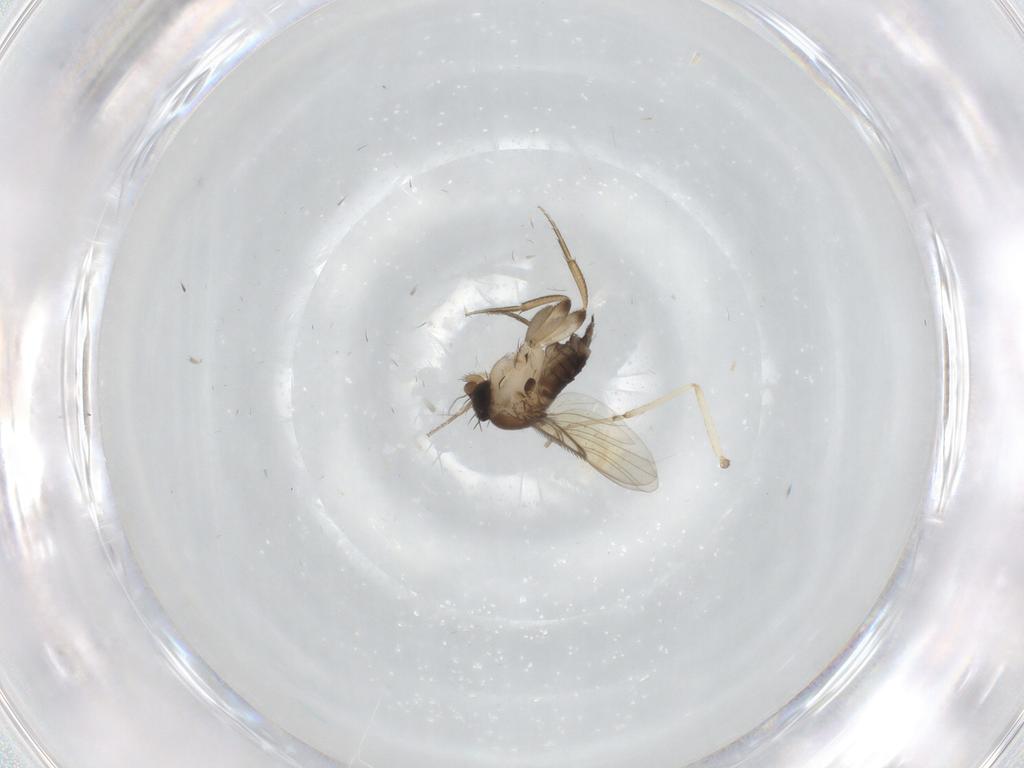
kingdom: Animalia
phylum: Arthropoda
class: Insecta
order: Diptera
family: Phoridae
